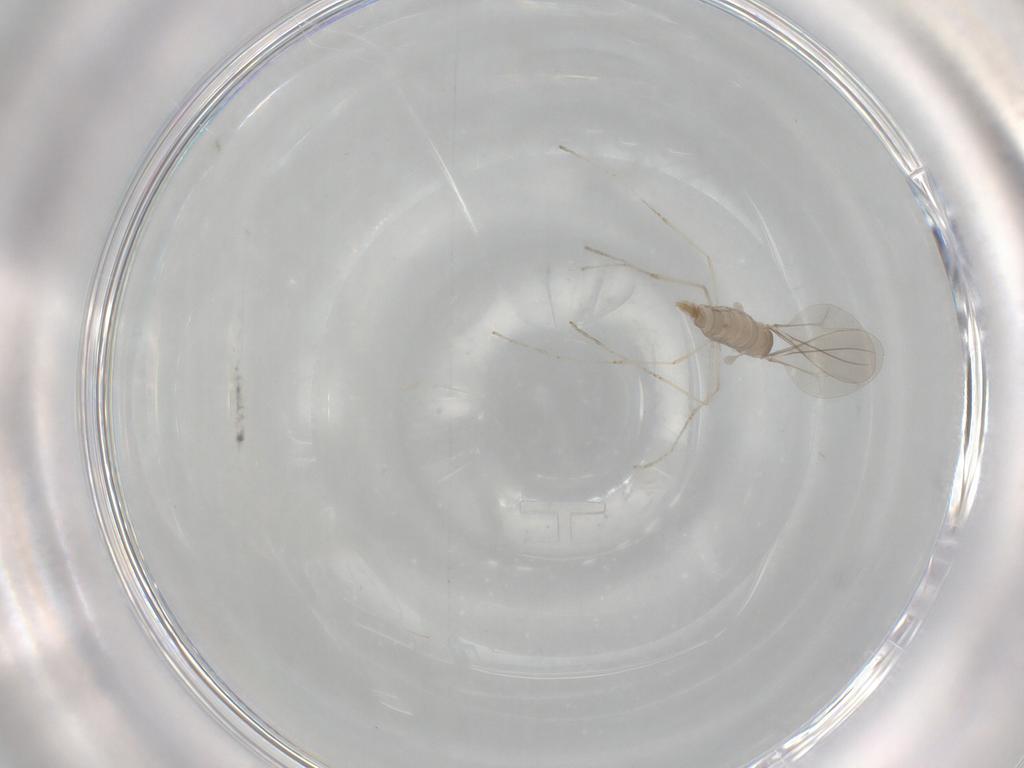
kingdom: Animalia
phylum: Arthropoda
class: Insecta
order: Diptera
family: Cecidomyiidae
